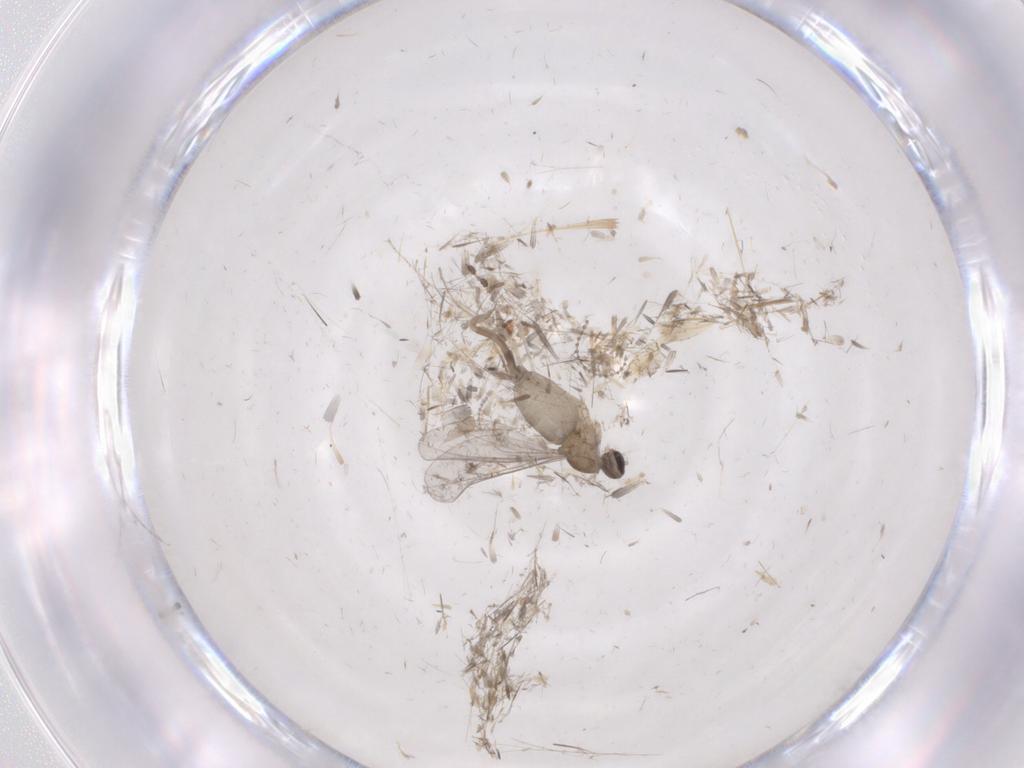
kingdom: Animalia
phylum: Arthropoda
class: Insecta
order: Diptera
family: Cecidomyiidae
